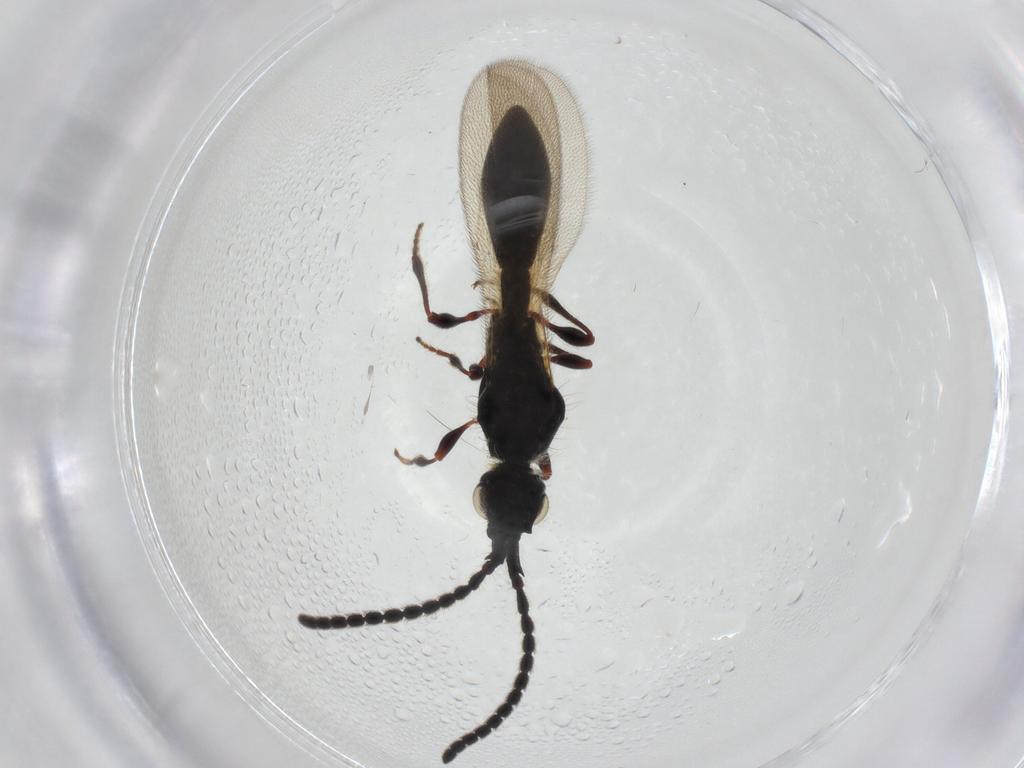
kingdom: Animalia
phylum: Arthropoda
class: Insecta
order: Hymenoptera
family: Diapriidae
